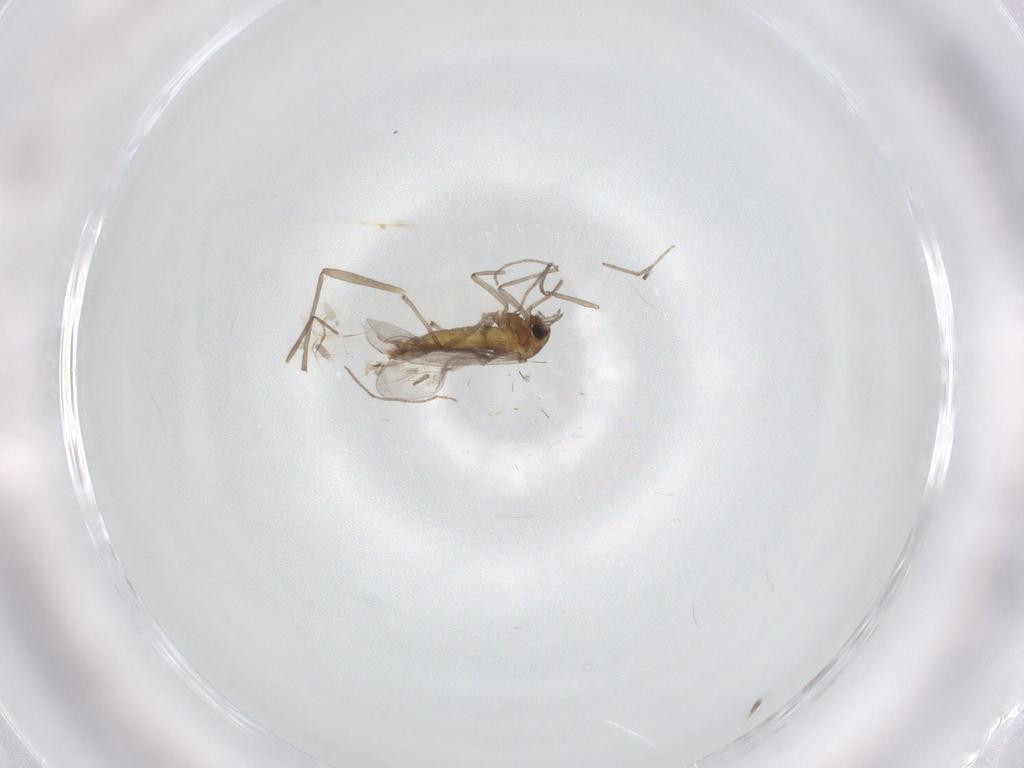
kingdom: Animalia
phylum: Arthropoda
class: Insecta
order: Diptera
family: Chironomidae
